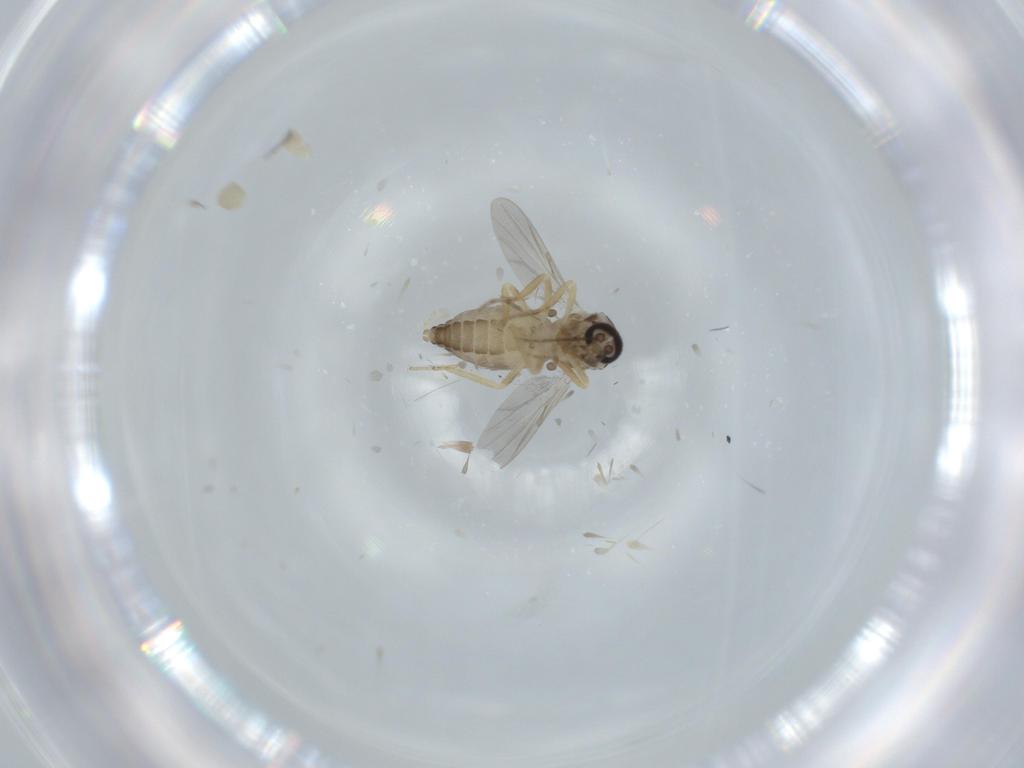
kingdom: Animalia
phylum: Arthropoda
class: Insecta
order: Diptera
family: Ceratopogonidae
